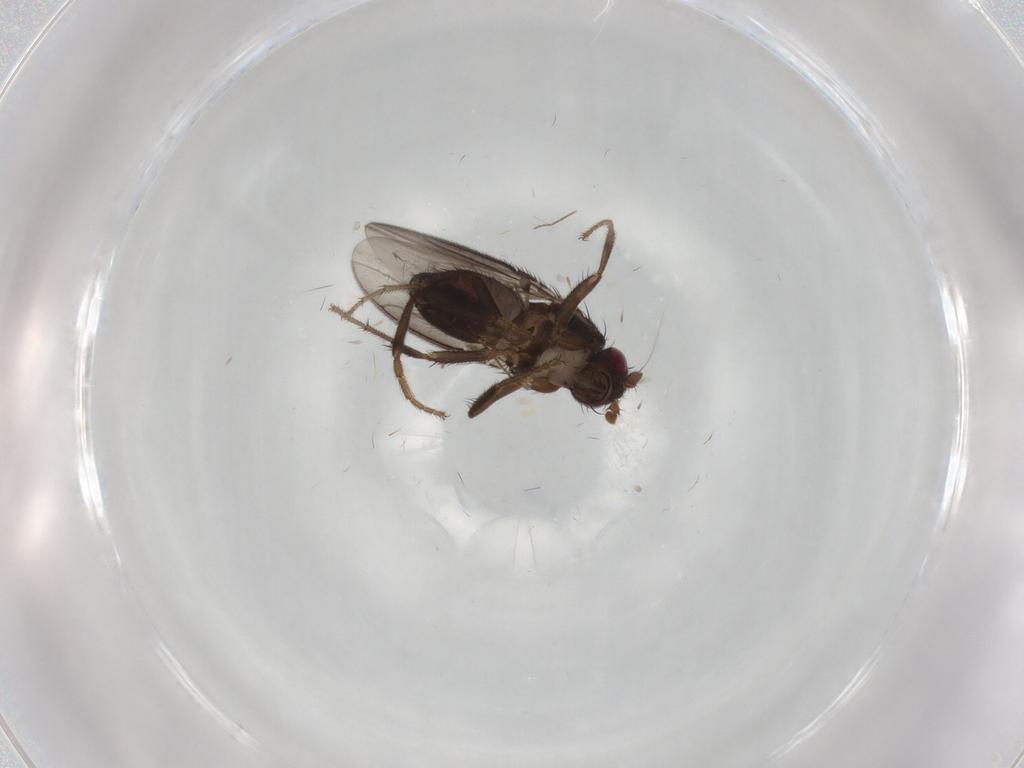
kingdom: Animalia
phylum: Arthropoda
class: Insecta
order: Diptera
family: Chironomidae
